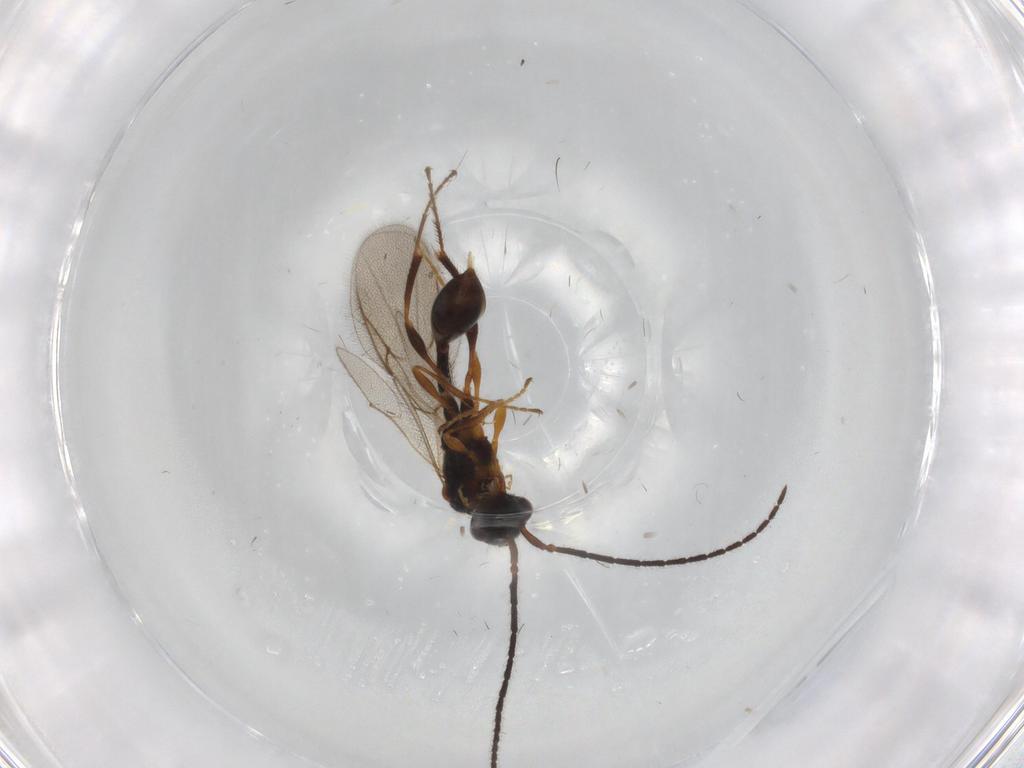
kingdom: Animalia
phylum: Arthropoda
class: Insecta
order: Hymenoptera
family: Diapriidae
